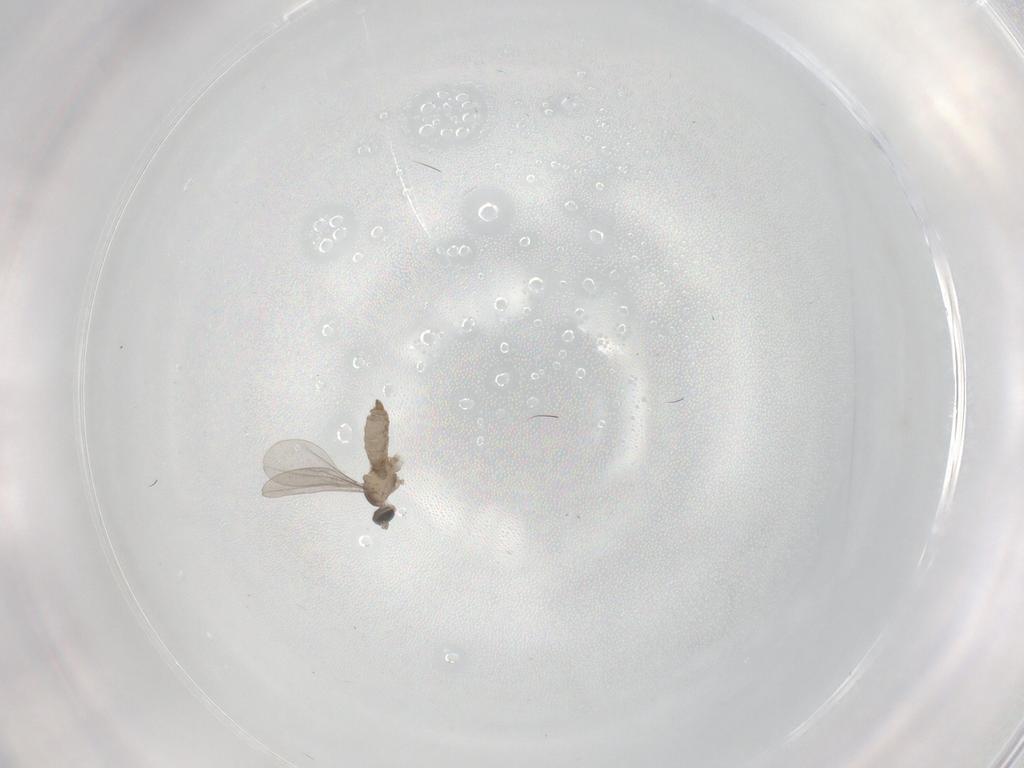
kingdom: Animalia
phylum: Arthropoda
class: Insecta
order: Diptera
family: Phoridae
